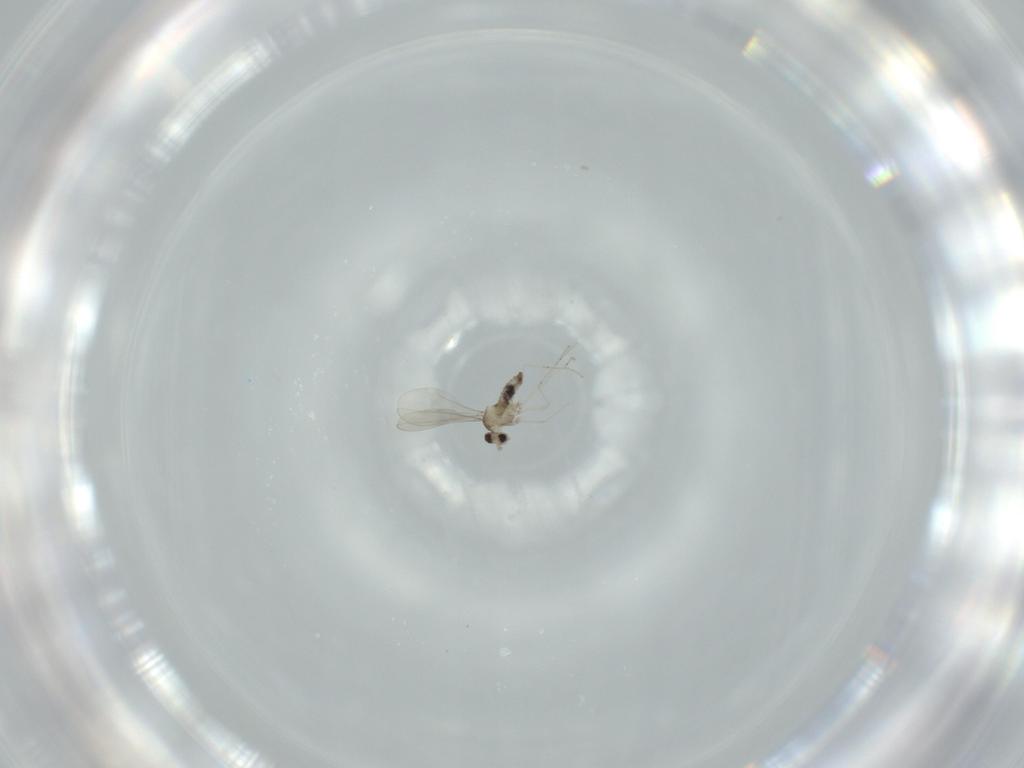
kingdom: Animalia
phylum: Arthropoda
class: Insecta
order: Diptera
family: Cecidomyiidae
